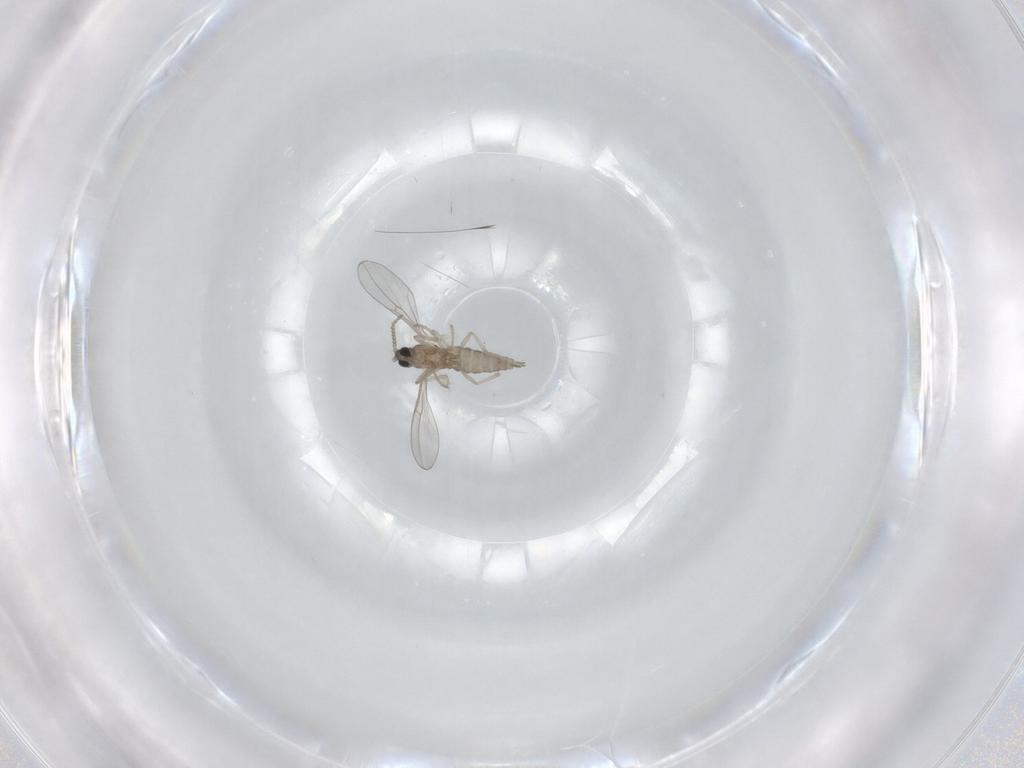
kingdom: Animalia
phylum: Arthropoda
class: Insecta
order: Diptera
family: Cecidomyiidae
